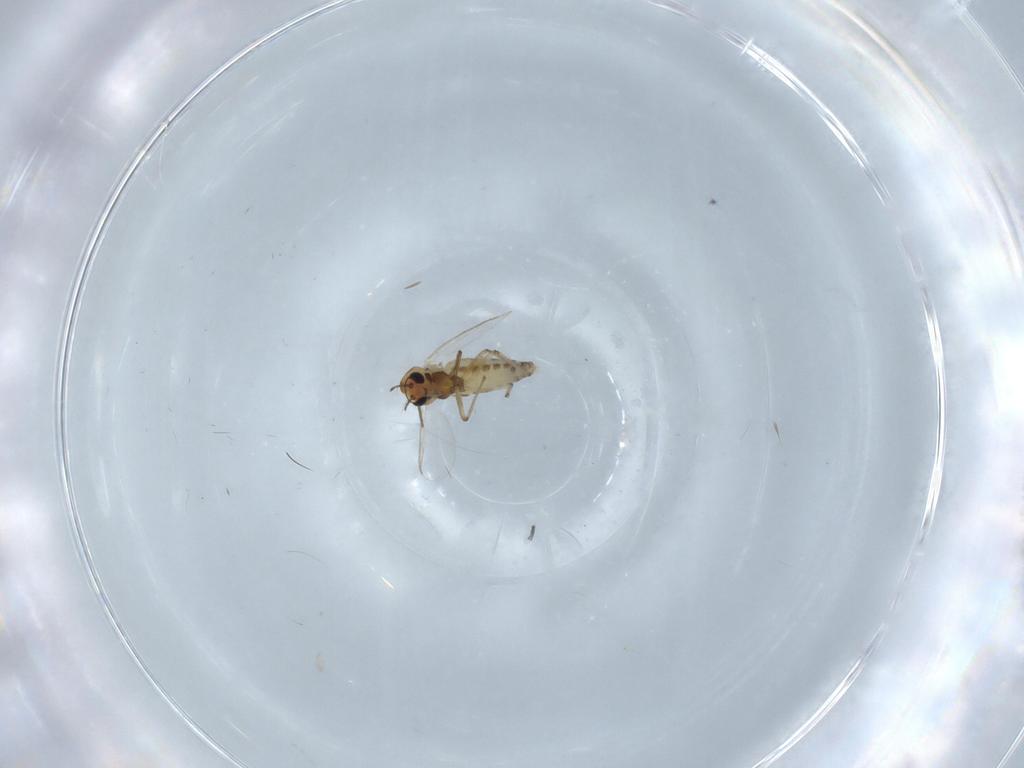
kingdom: Animalia
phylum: Arthropoda
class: Insecta
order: Diptera
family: Chironomidae
